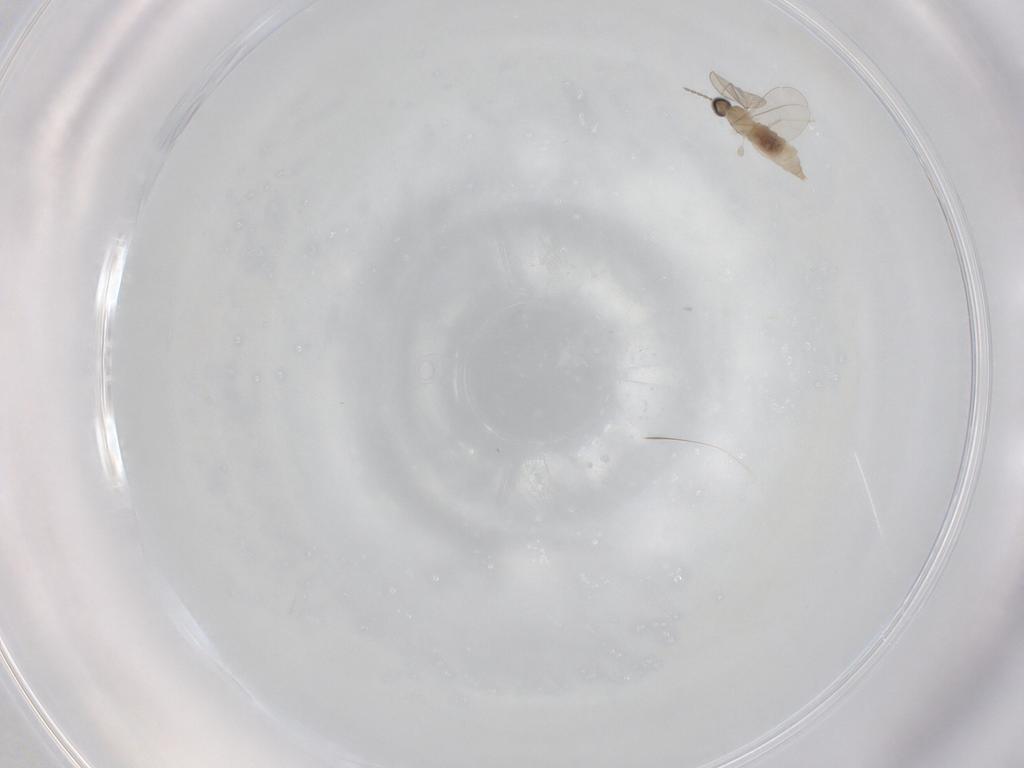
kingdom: Animalia
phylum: Arthropoda
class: Insecta
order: Diptera
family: Cecidomyiidae
